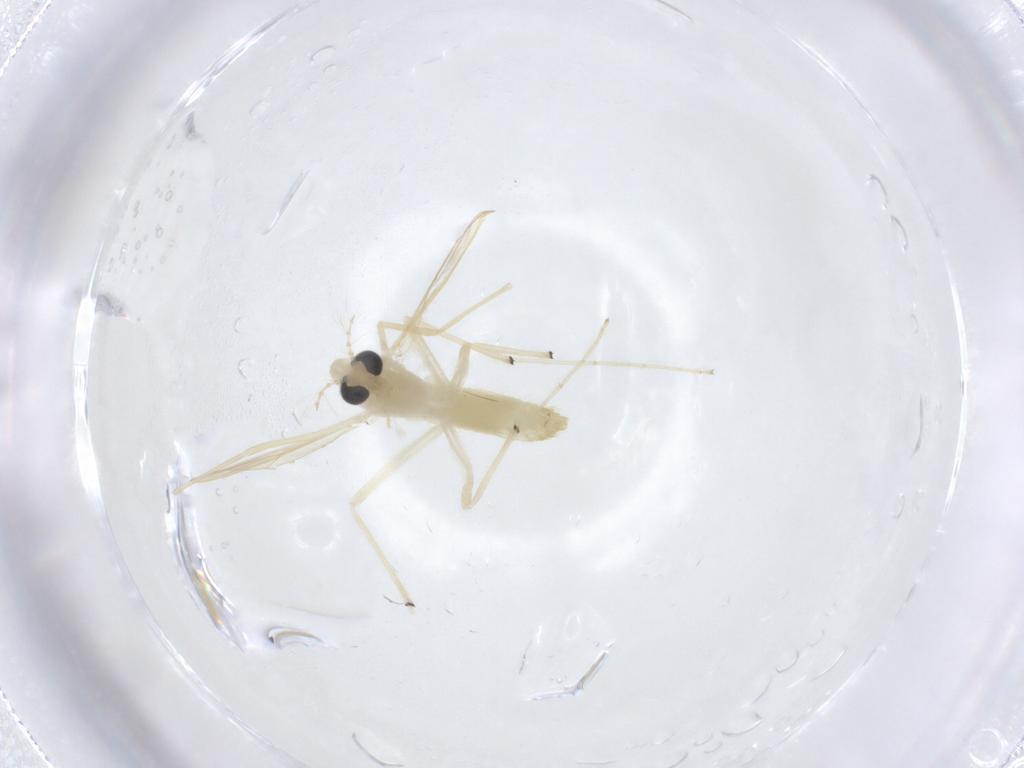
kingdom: Animalia
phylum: Arthropoda
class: Insecta
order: Diptera
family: Chironomidae
